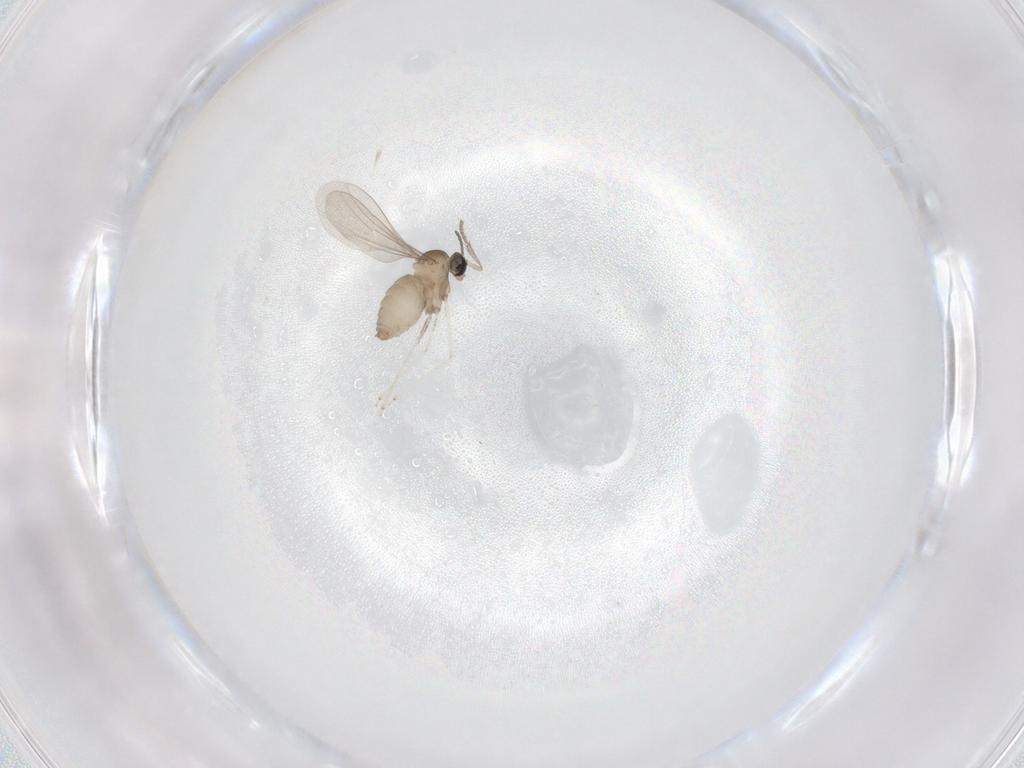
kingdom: Animalia
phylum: Arthropoda
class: Insecta
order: Diptera
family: Cecidomyiidae
